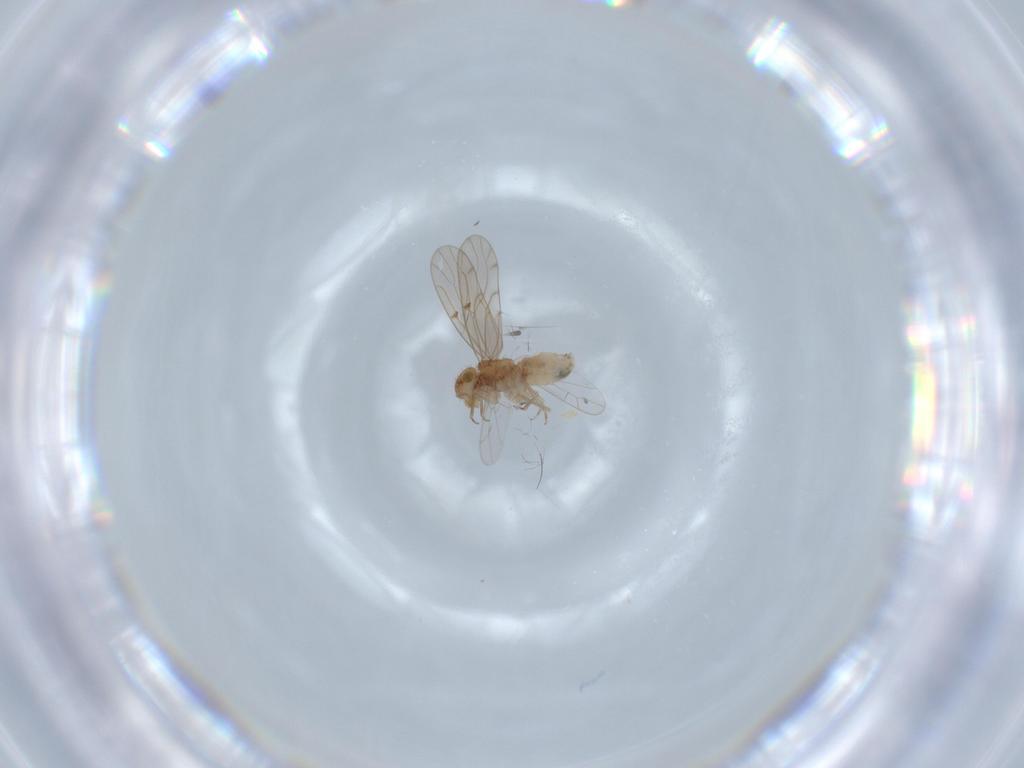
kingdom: Animalia
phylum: Arthropoda
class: Insecta
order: Psocodea
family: Ectopsocidae
